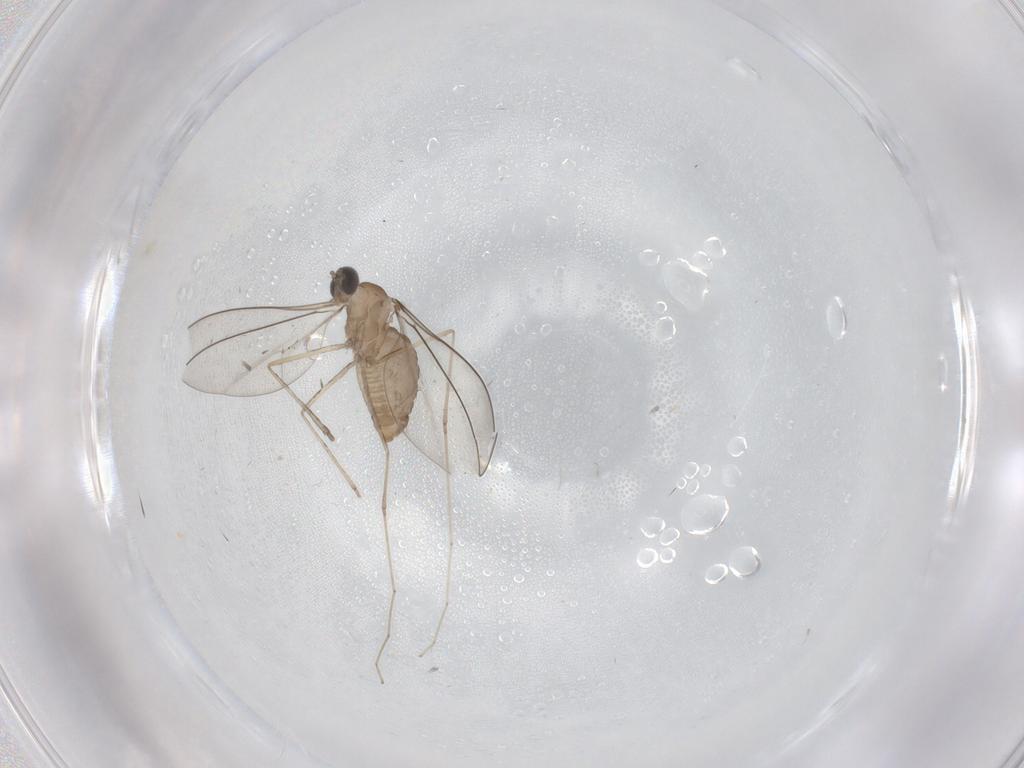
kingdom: Animalia
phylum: Arthropoda
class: Insecta
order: Diptera
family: Cecidomyiidae
